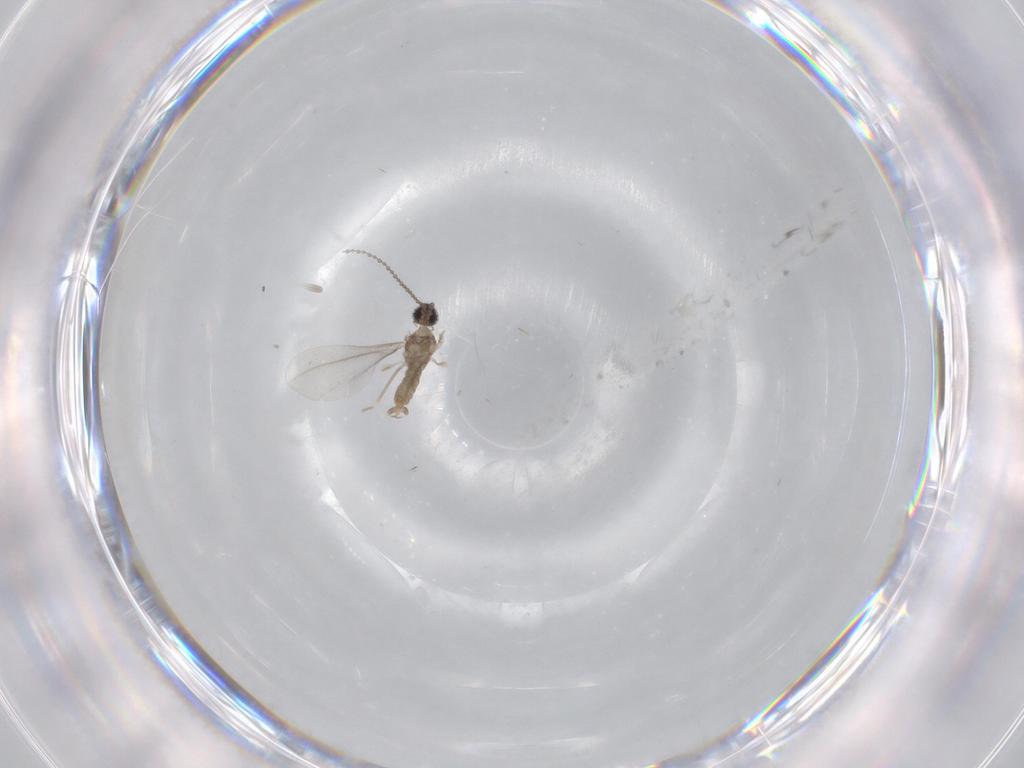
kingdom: Animalia
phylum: Arthropoda
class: Insecta
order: Diptera
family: Cecidomyiidae
